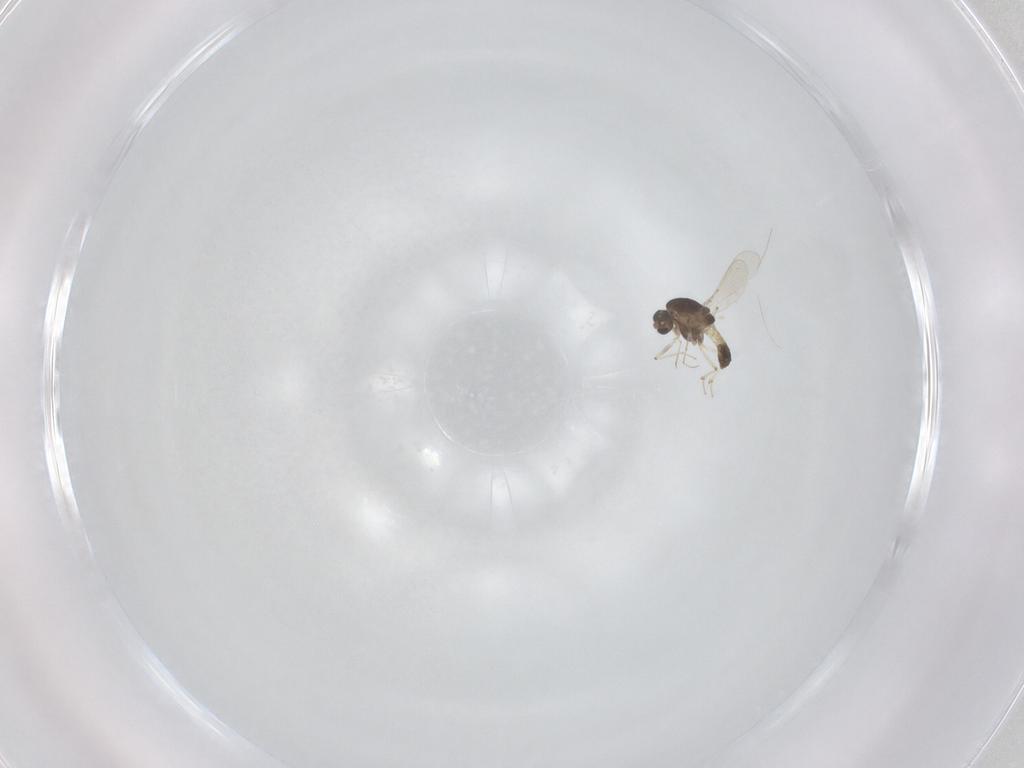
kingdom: Animalia
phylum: Arthropoda
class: Insecta
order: Diptera
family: Chironomidae
